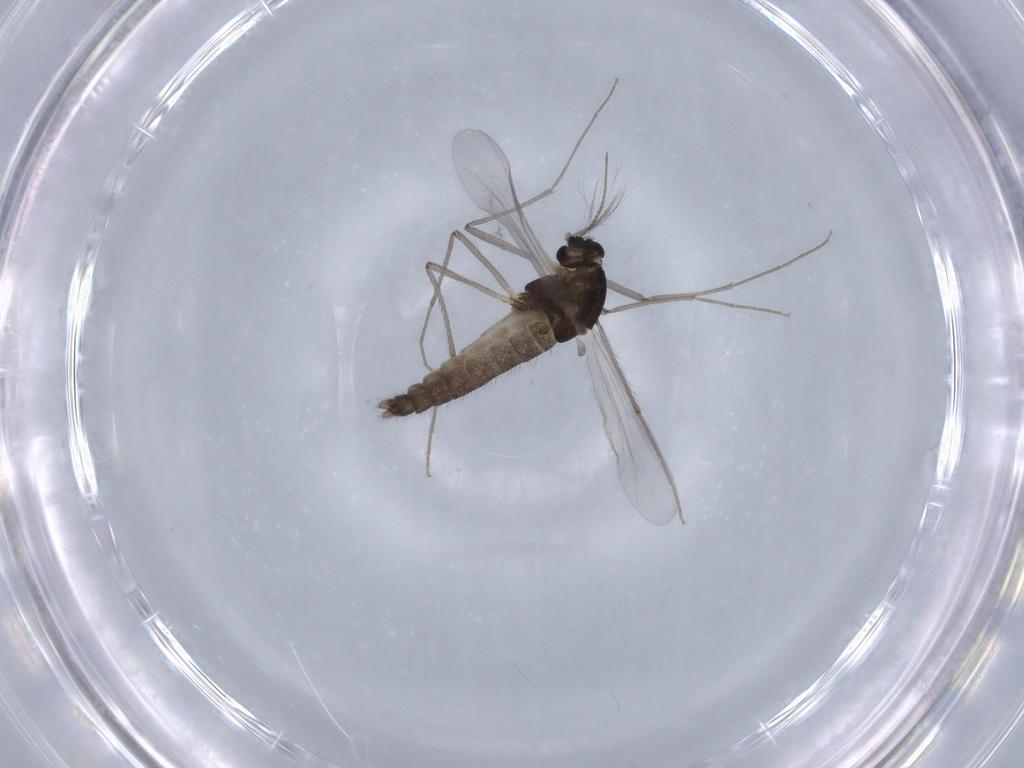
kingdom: Animalia
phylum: Arthropoda
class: Insecta
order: Diptera
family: Chironomidae
